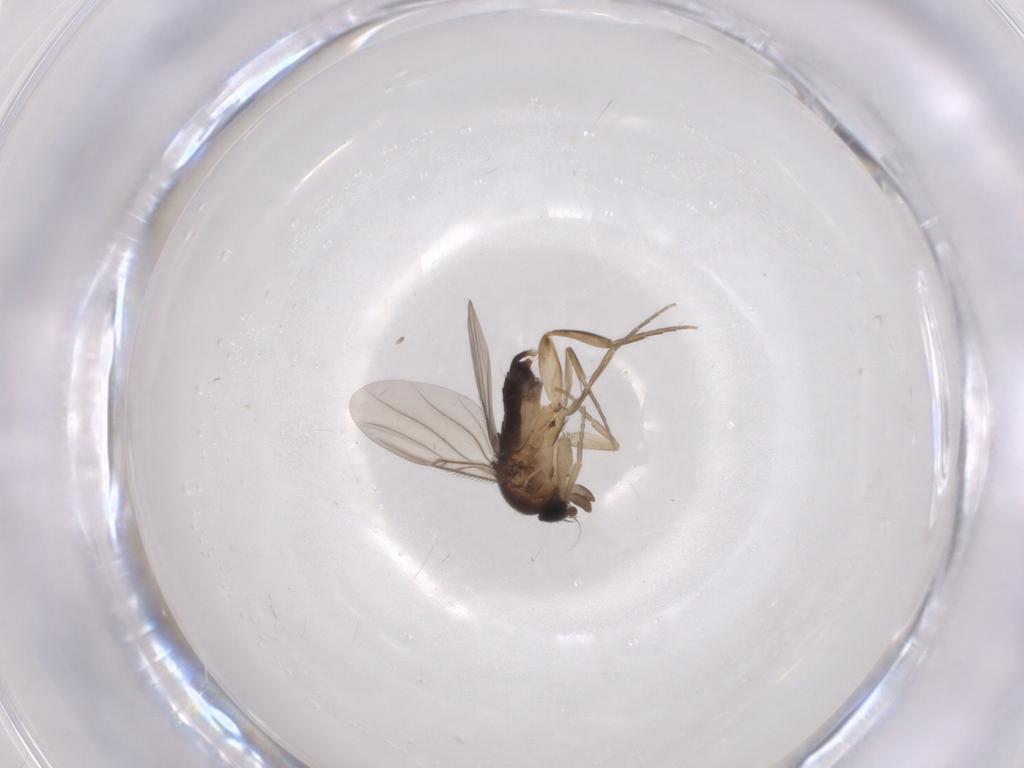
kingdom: Animalia
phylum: Arthropoda
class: Insecta
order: Diptera
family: Phoridae
